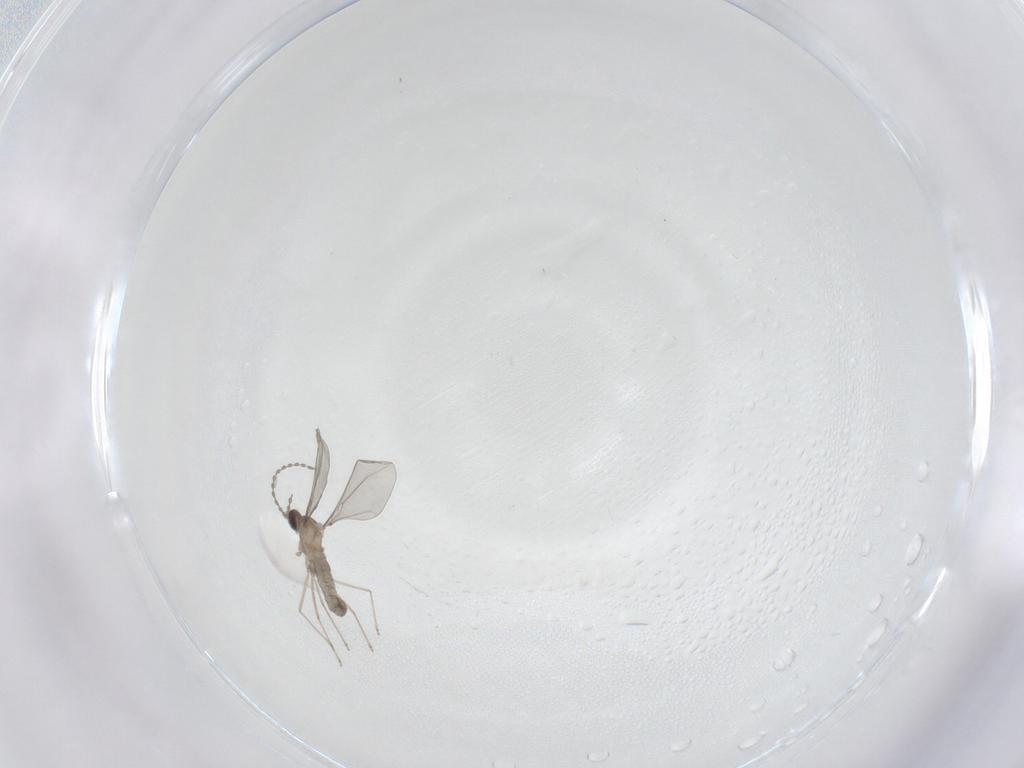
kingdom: Animalia
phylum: Arthropoda
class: Insecta
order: Diptera
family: Cecidomyiidae
